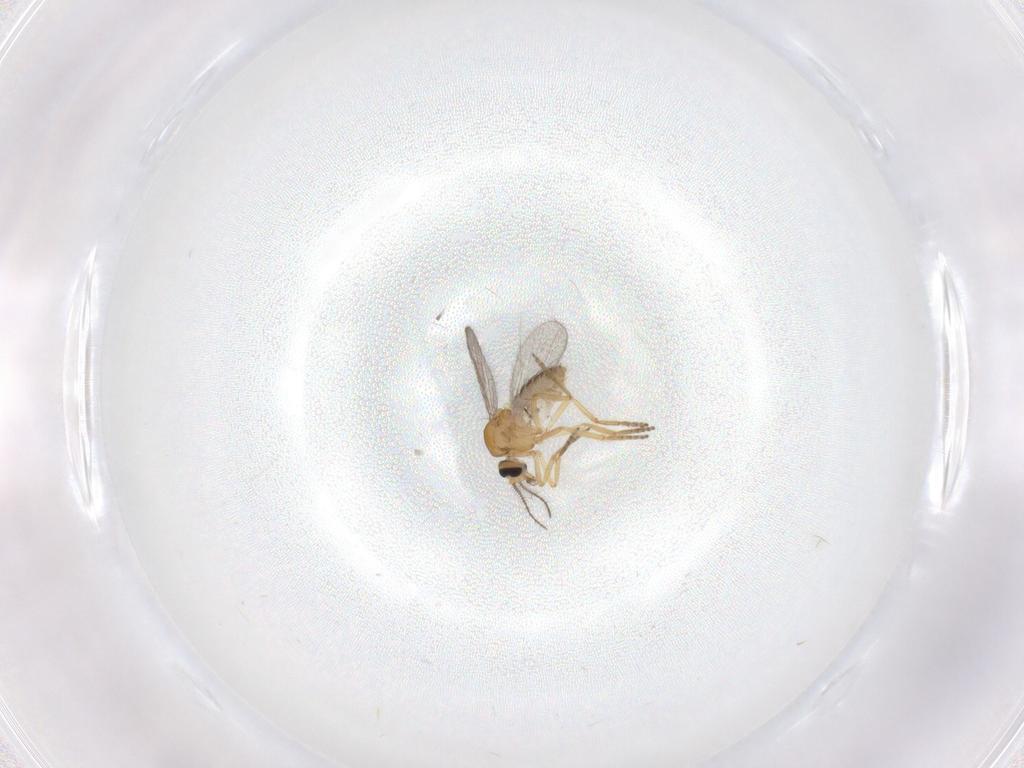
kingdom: Animalia
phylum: Arthropoda
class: Insecta
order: Diptera
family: Ceratopogonidae
